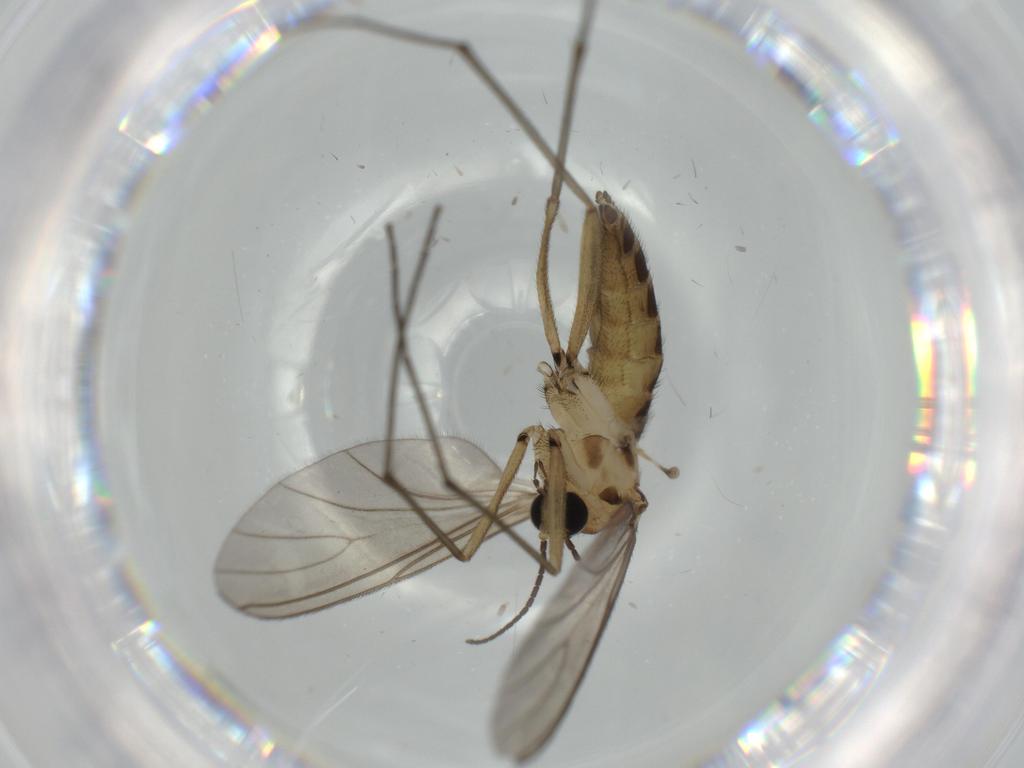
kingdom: Animalia
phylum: Arthropoda
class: Insecta
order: Diptera
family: Sciaridae
